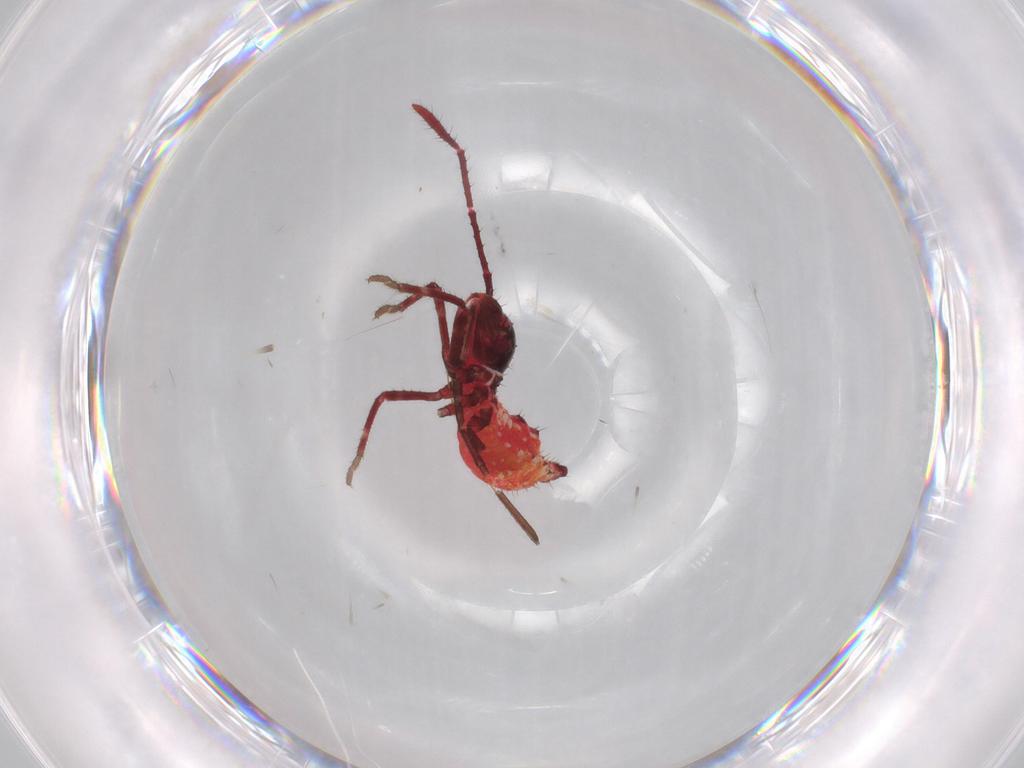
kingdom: Animalia
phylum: Arthropoda
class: Insecta
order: Hemiptera
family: Coreidae
